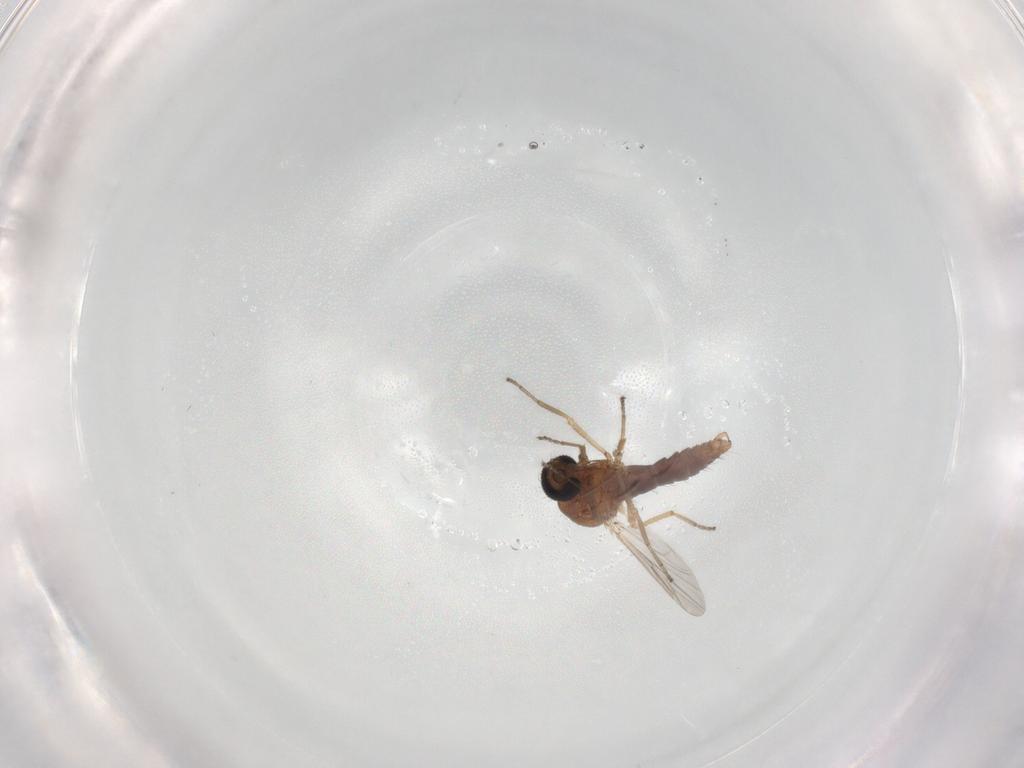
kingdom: Animalia
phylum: Arthropoda
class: Insecta
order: Diptera
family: Ceratopogonidae
